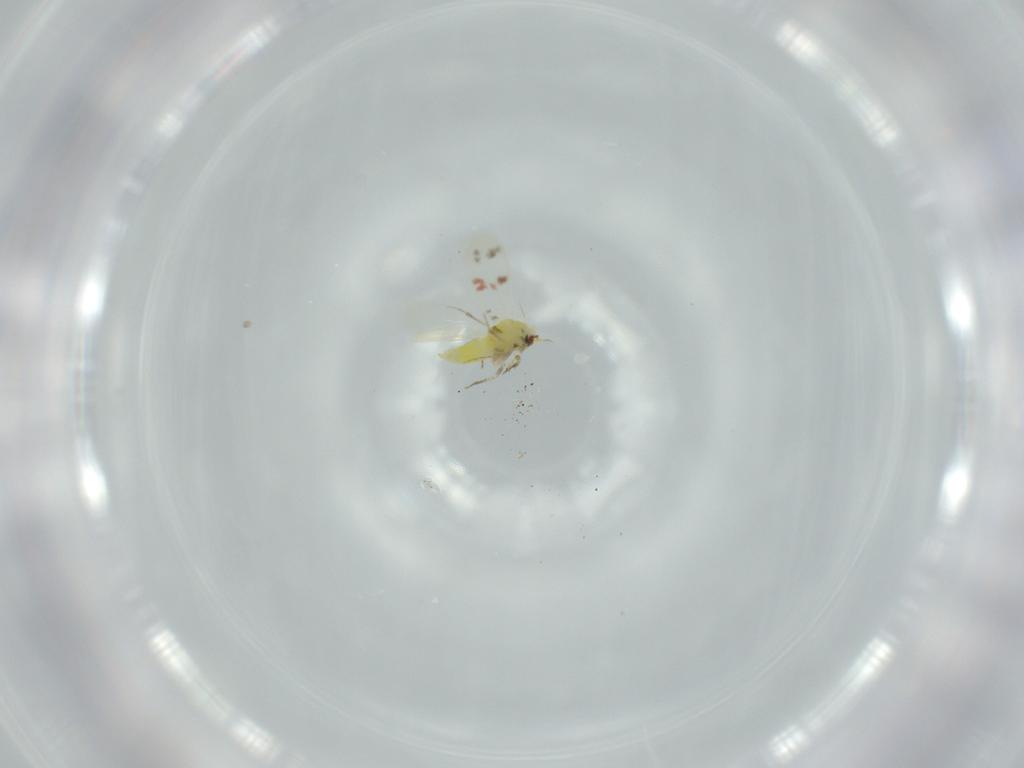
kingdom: Animalia
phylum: Arthropoda
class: Insecta
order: Hemiptera
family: Aleyrodidae
